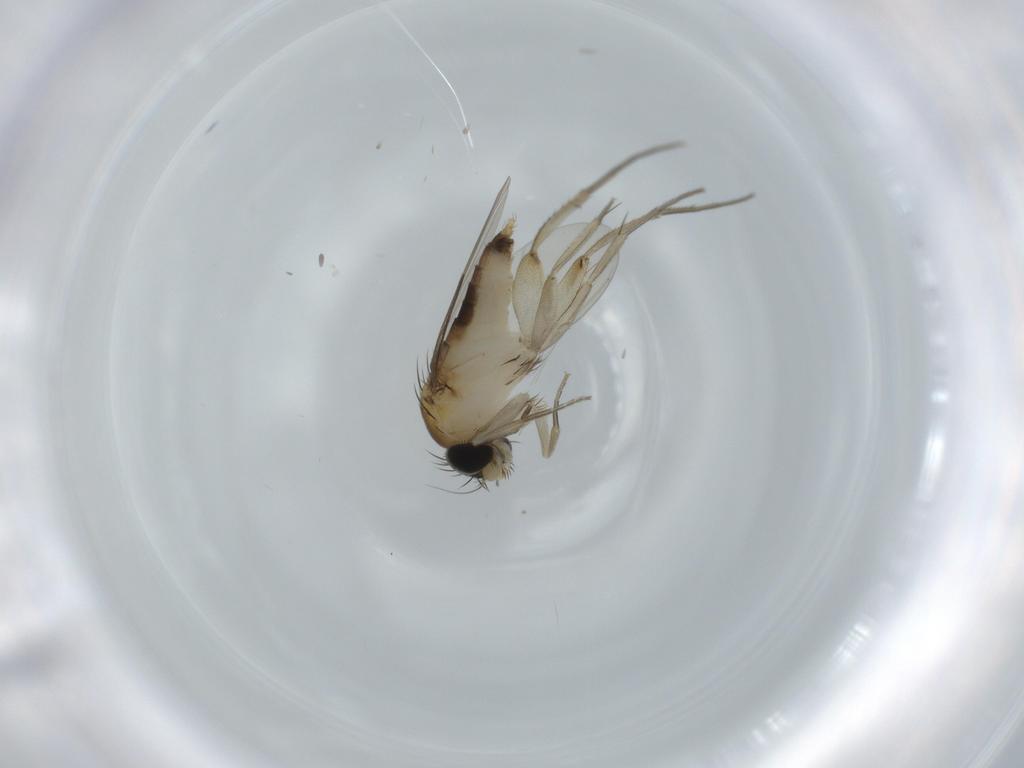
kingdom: Animalia
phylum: Arthropoda
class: Insecta
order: Diptera
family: Phoridae
